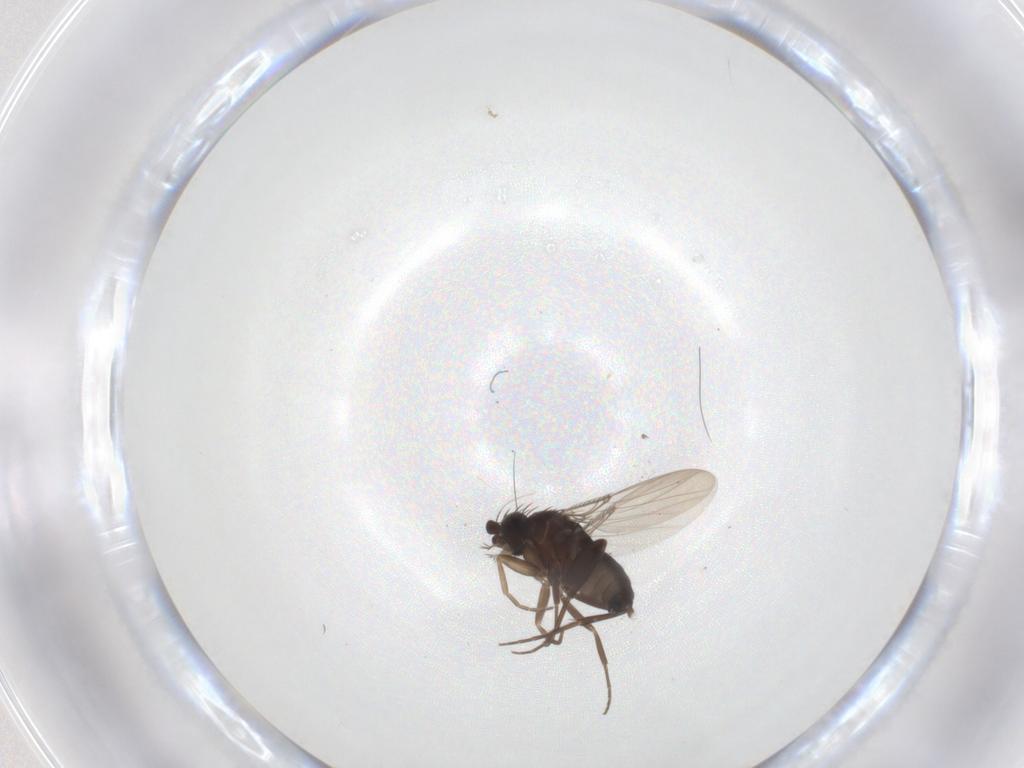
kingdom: Animalia
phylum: Arthropoda
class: Insecta
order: Diptera
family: Phoridae
